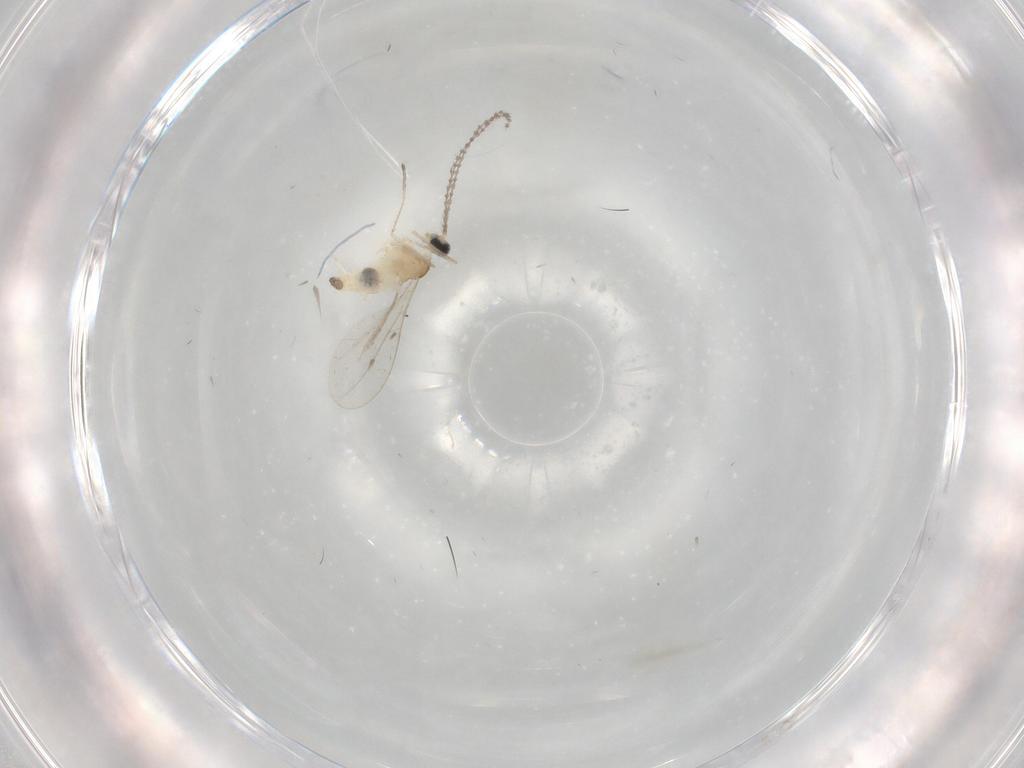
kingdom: Animalia
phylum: Arthropoda
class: Insecta
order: Diptera
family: Cecidomyiidae
